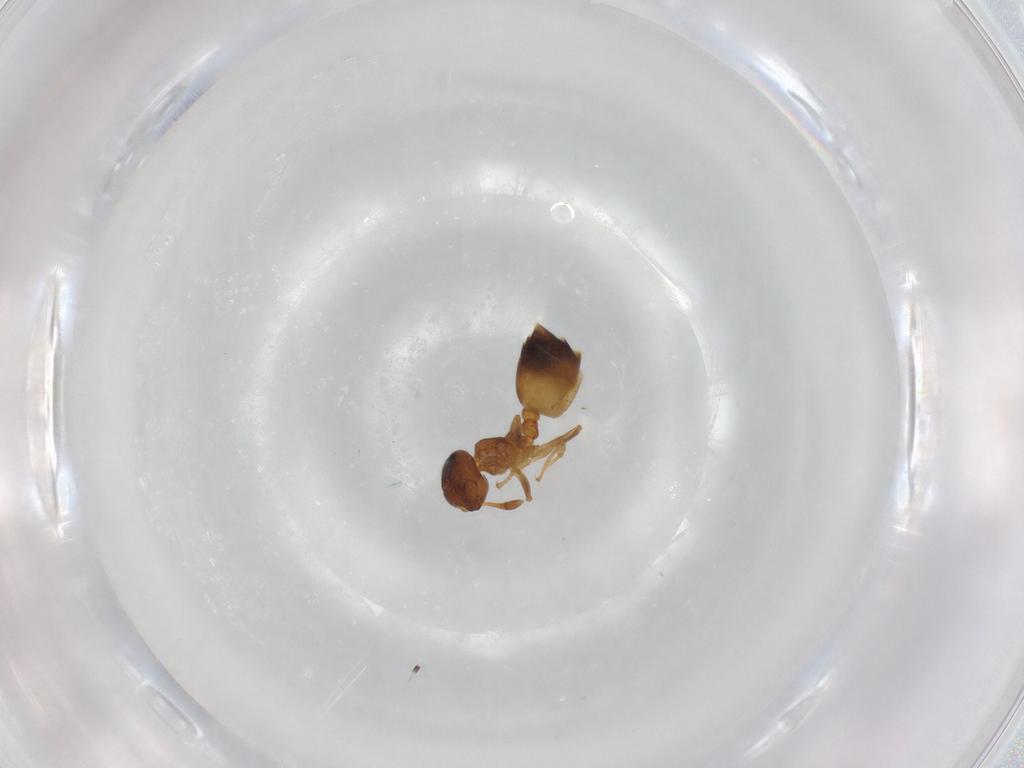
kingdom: Animalia
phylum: Arthropoda
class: Insecta
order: Hymenoptera
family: Formicidae
